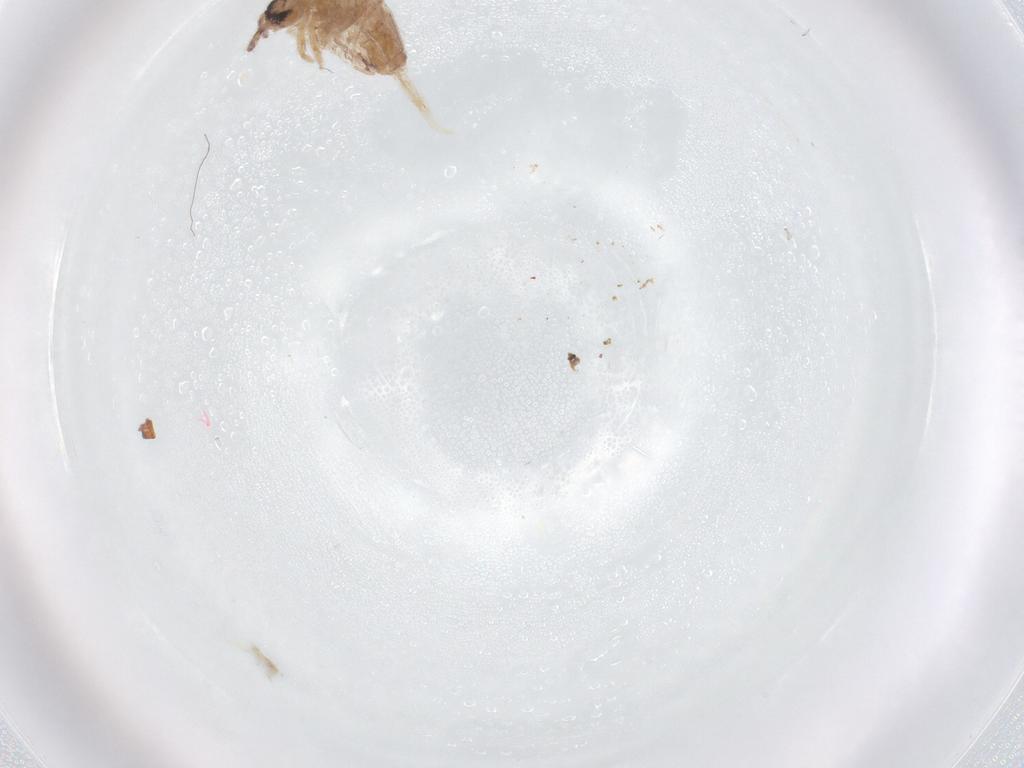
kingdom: Animalia
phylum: Arthropoda
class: Collembola
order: Entomobryomorpha
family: Entomobryidae
